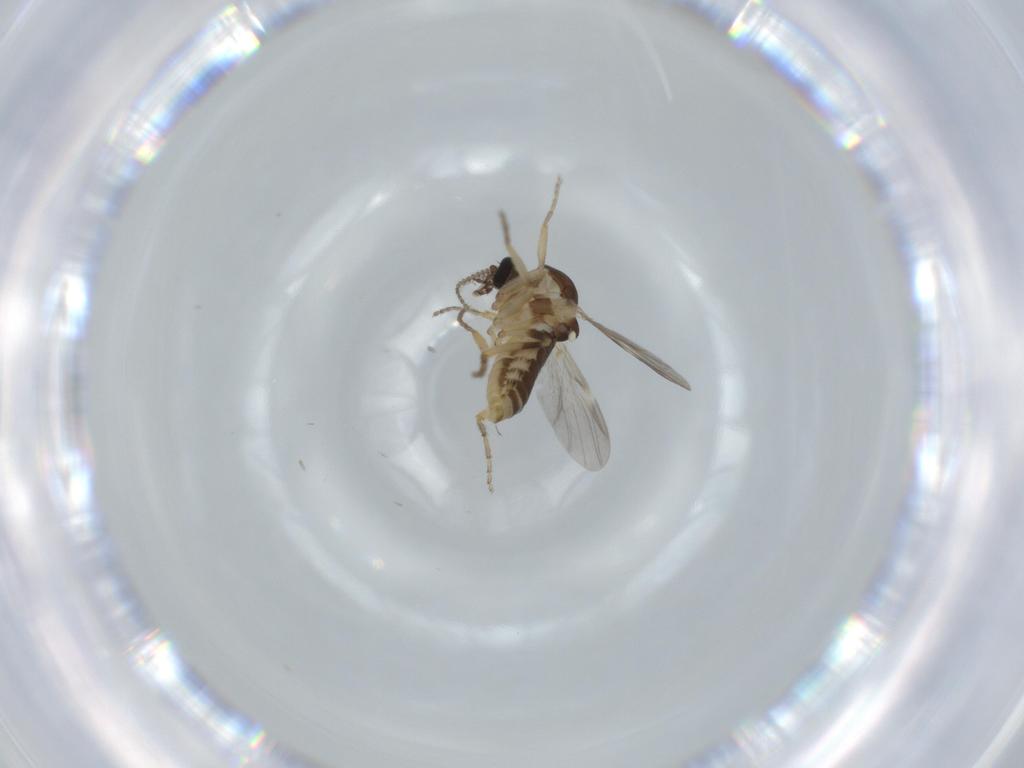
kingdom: Animalia
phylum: Arthropoda
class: Insecta
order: Diptera
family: Ceratopogonidae
